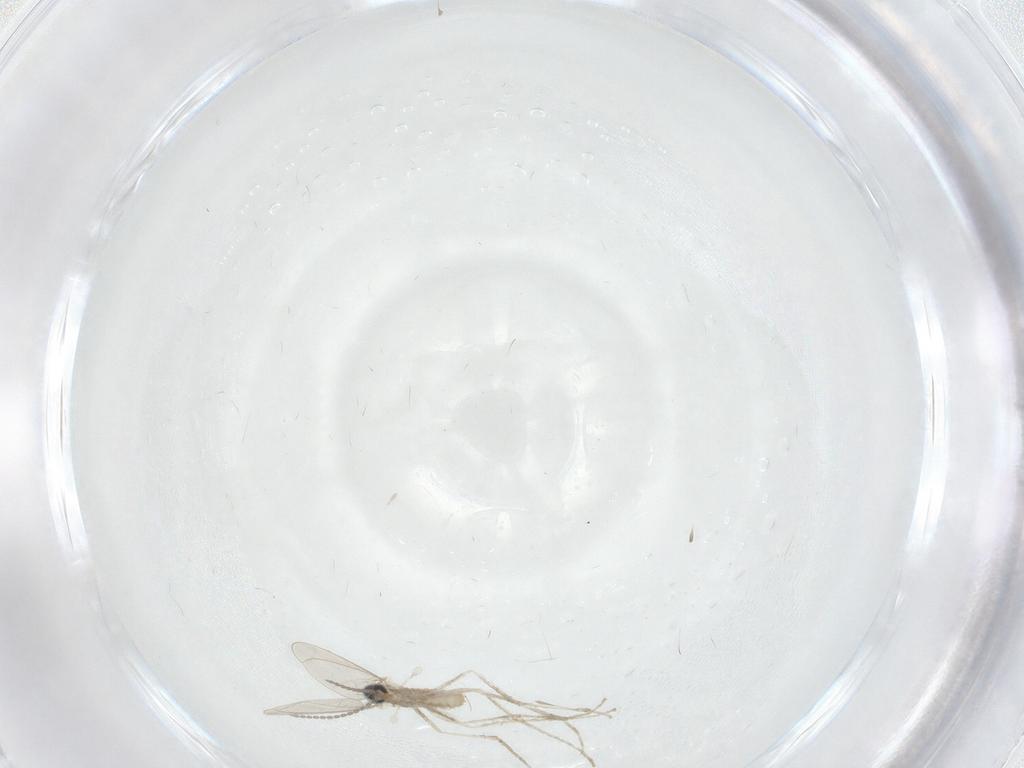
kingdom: Animalia
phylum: Arthropoda
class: Insecta
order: Diptera
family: Cecidomyiidae
